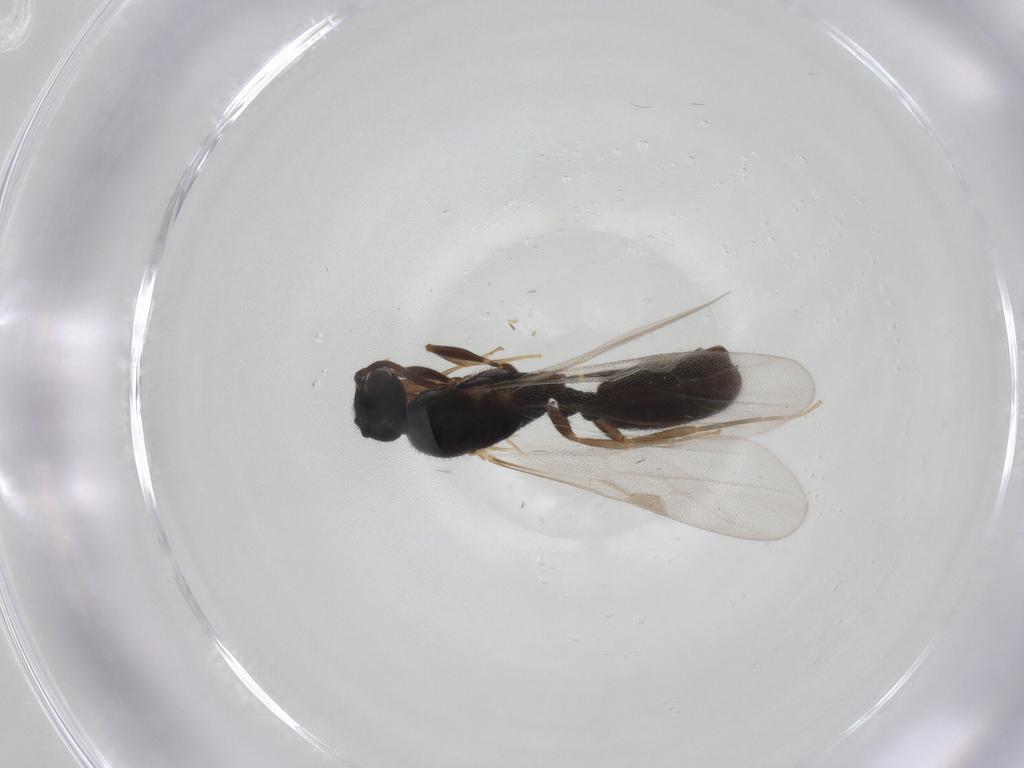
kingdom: Animalia
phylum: Arthropoda
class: Insecta
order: Hymenoptera
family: Formicidae
